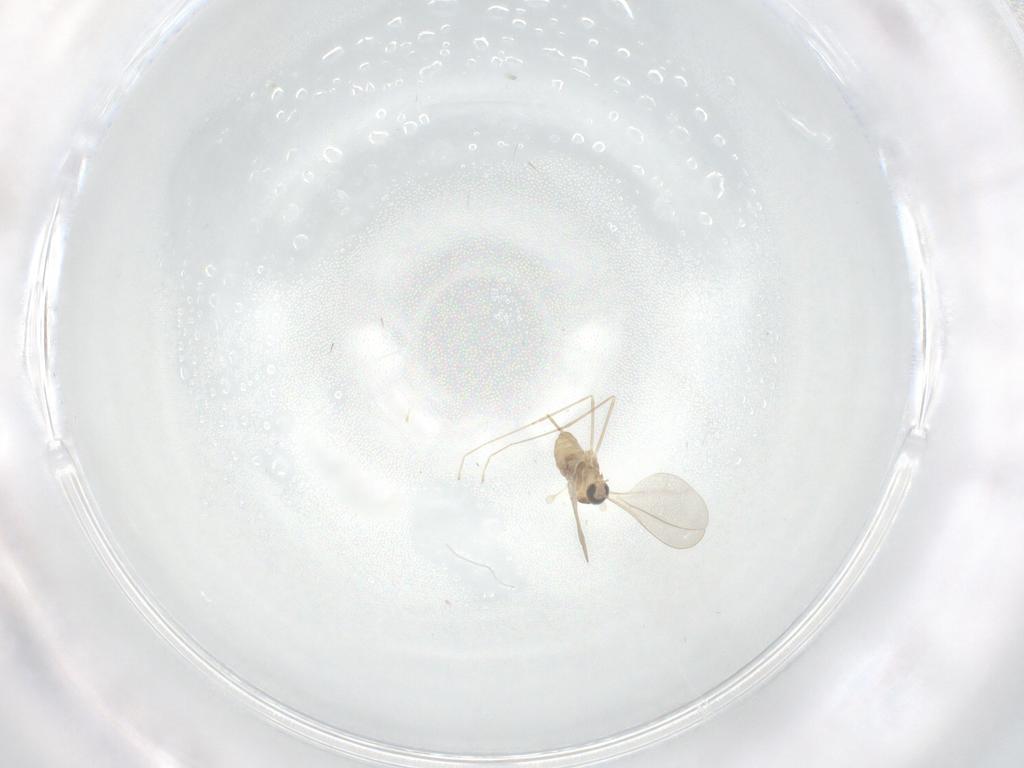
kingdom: Animalia
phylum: Arthropoda
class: Insecta
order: Diptera
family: Cecidomyiidae
